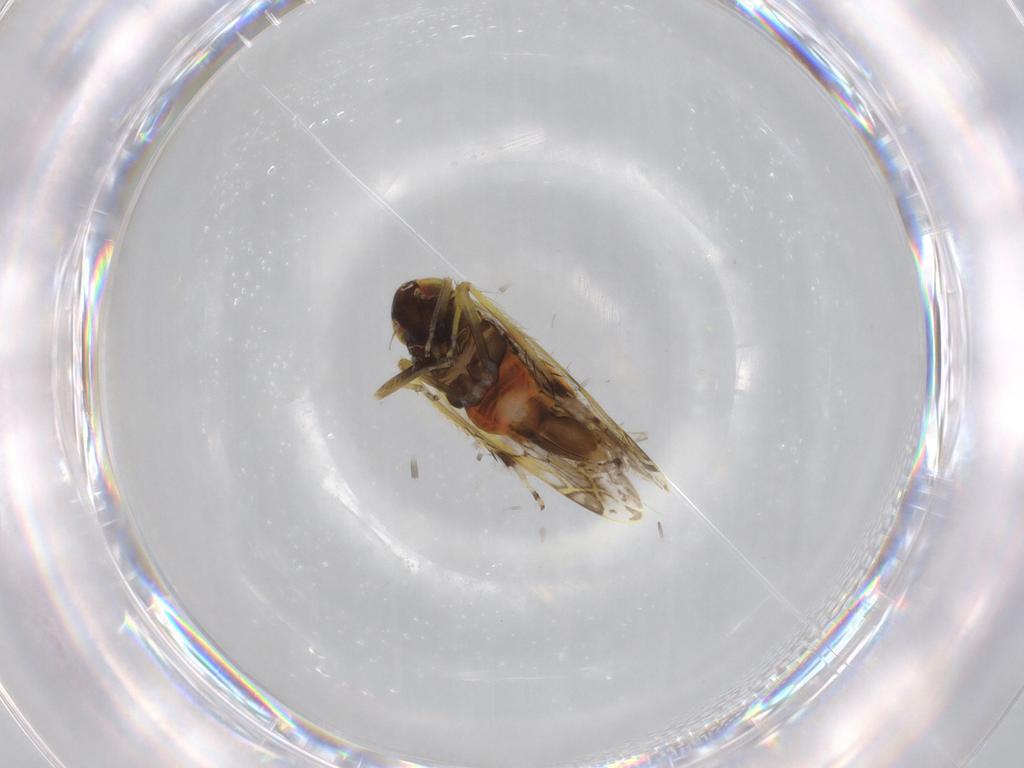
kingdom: Animalia
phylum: Arthropoda
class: Insecta
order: Hemiptera
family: Cicadellidae
